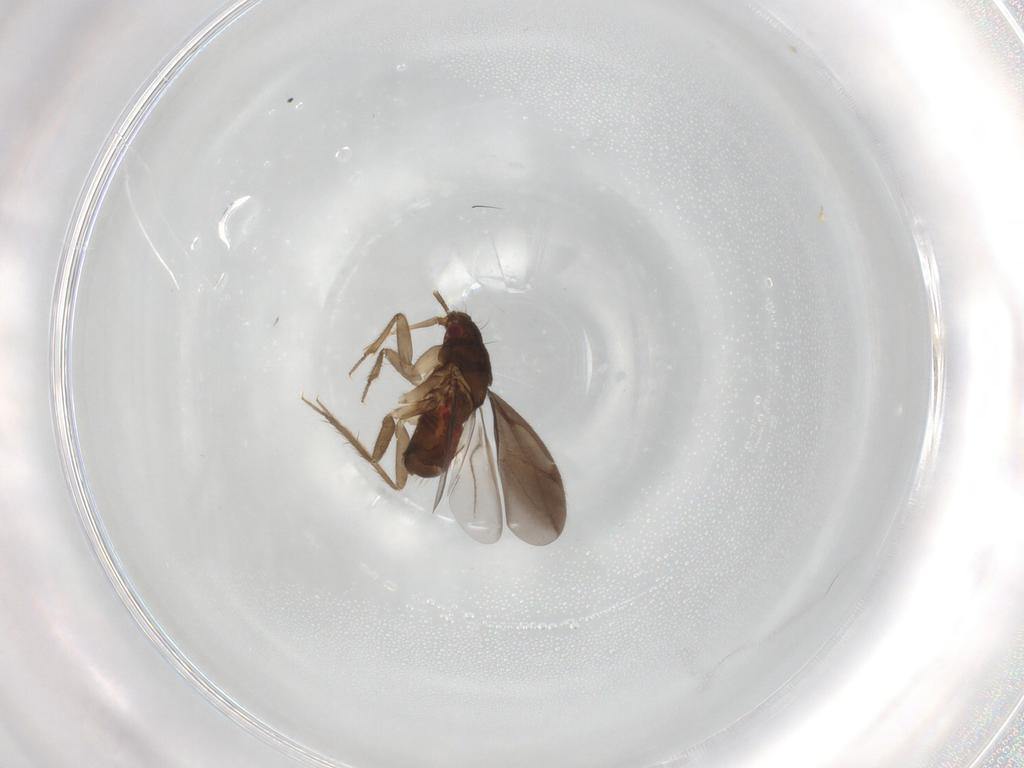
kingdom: Animalia
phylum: Arthropoda
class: Insecta
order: Hemiptera
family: Ceratocombidae
